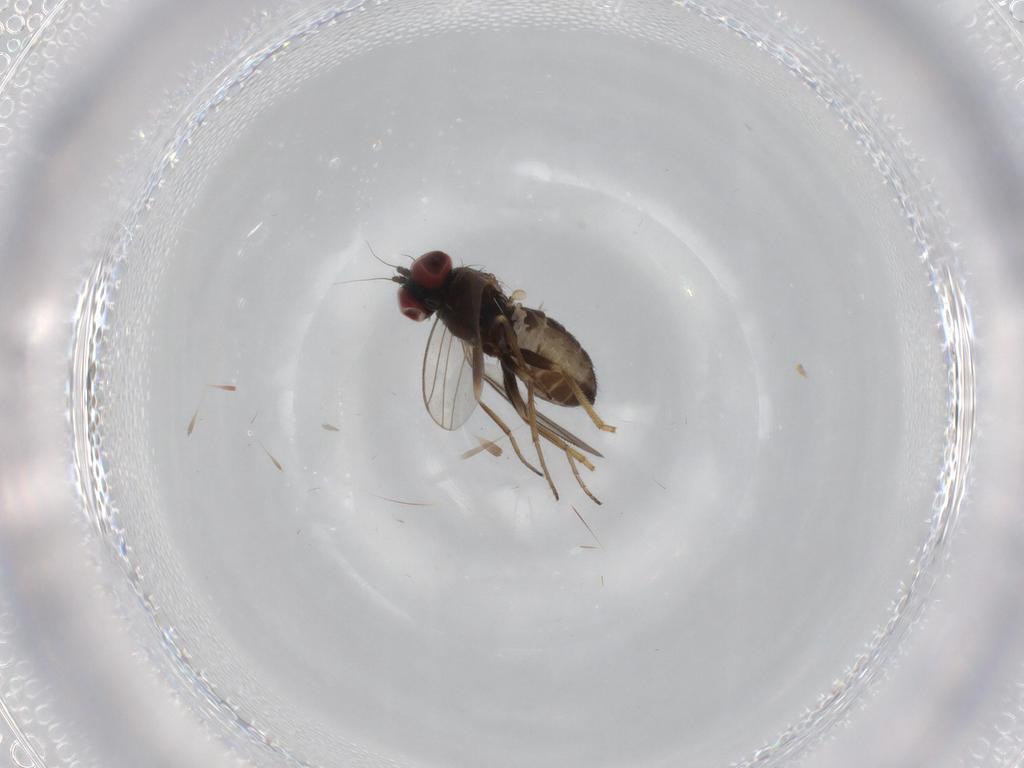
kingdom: Animalia
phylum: Arthropoda
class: Insecta
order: Diptera
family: Dolichopodidae
